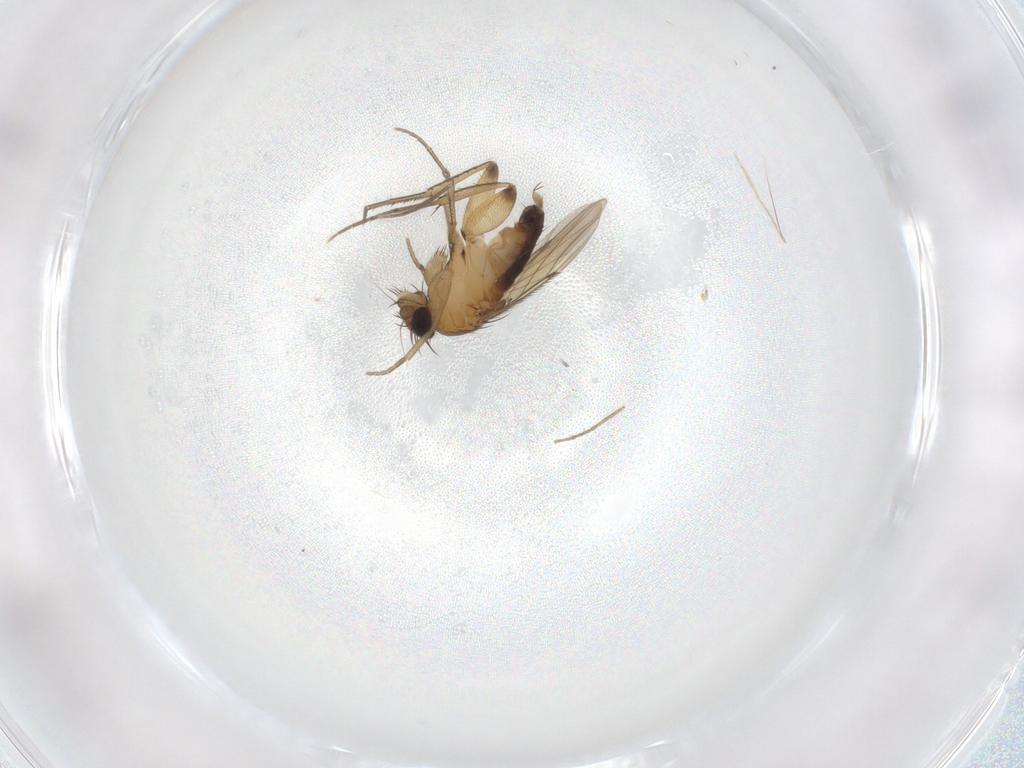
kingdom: Animalia
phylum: Arthropoda
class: Insecta
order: Diptera
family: Phoridae
